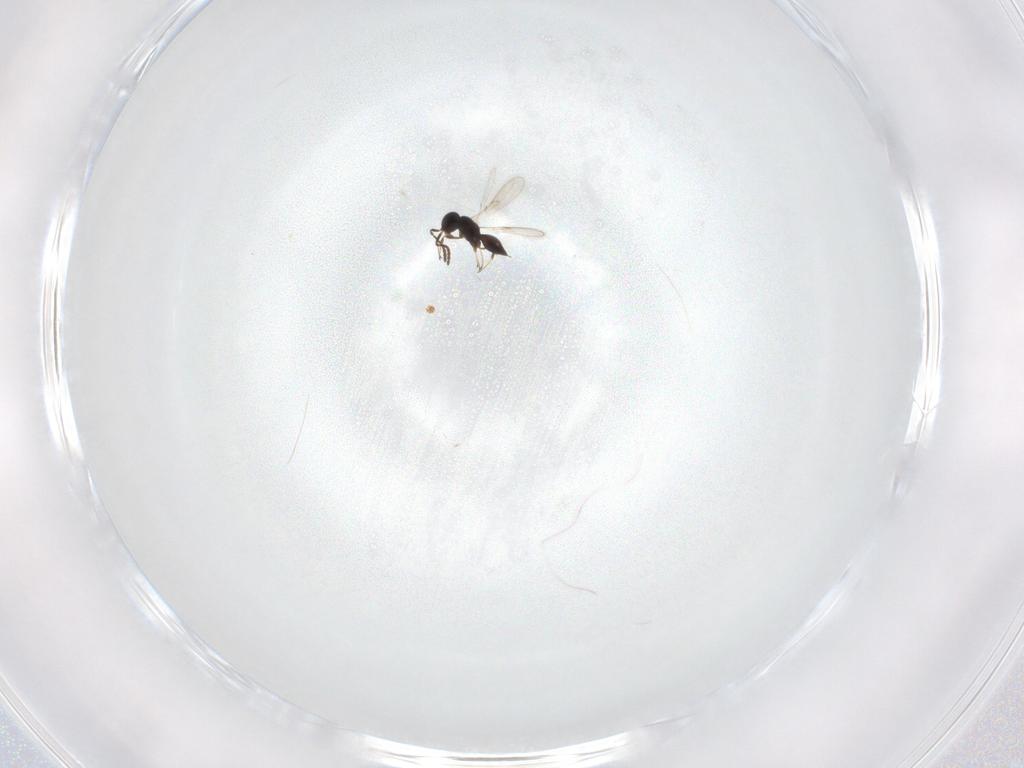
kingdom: Animalia
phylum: Arthropoda
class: Insecta
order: Hymenoptera
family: Scelionidae
